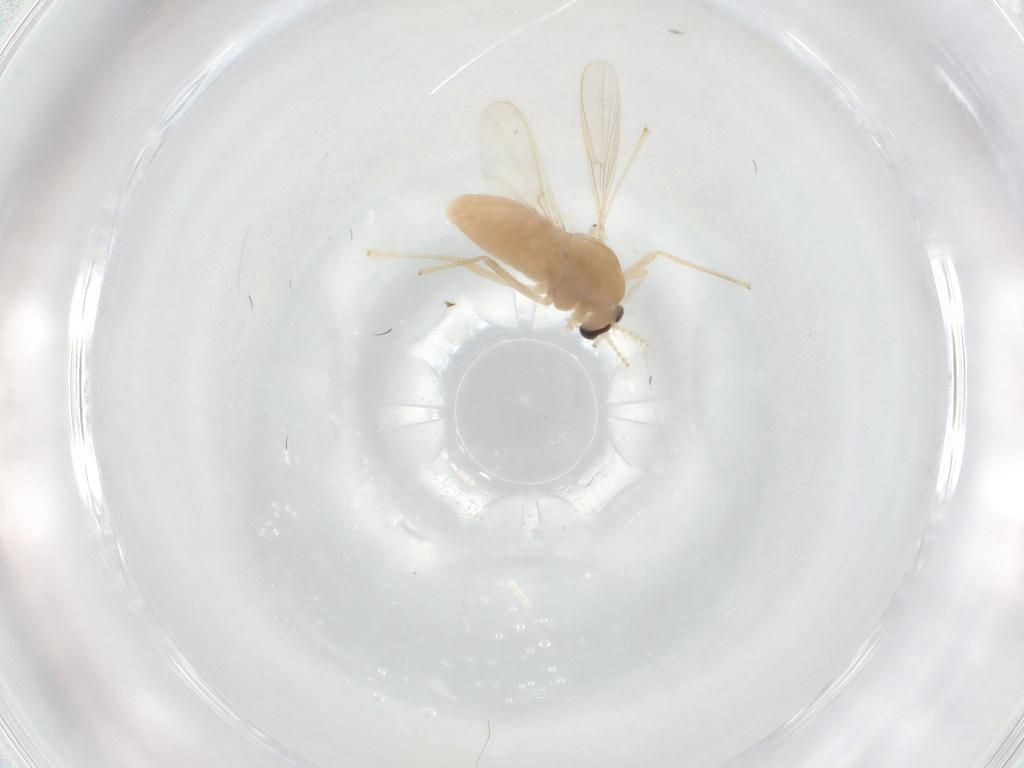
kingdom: Animalia
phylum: Arthropoda
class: Insecta
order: Diptera
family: Chironomidae
